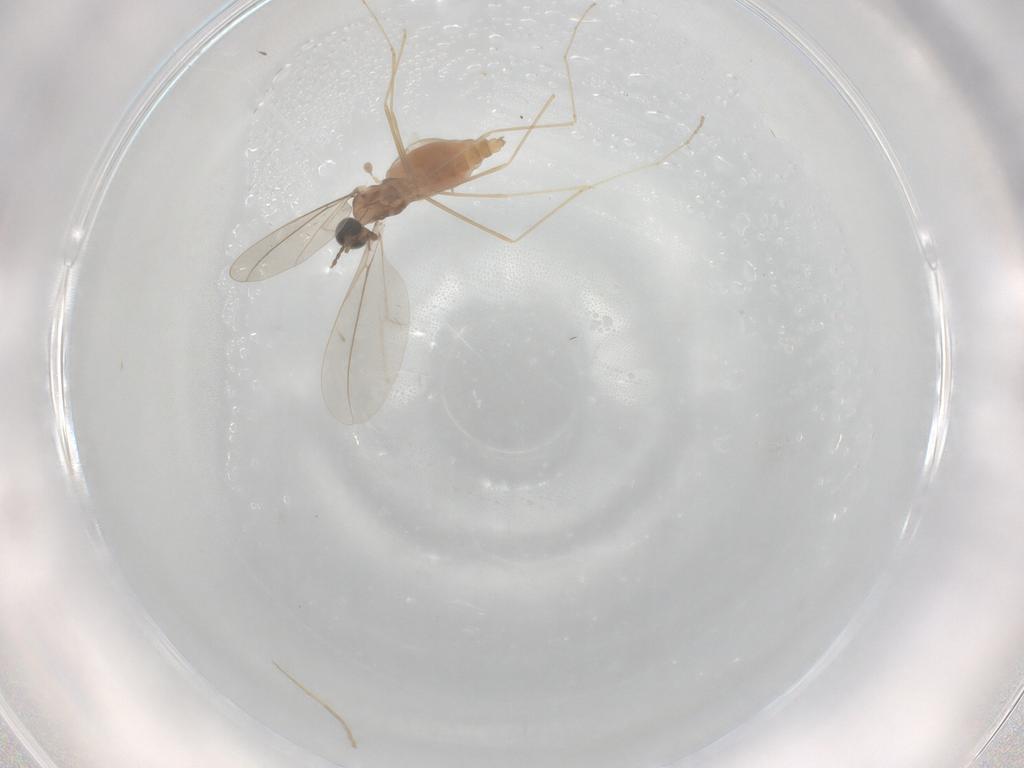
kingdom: Animalia
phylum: Arthropoda
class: Insecta
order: Diptera
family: Cecidomyiidae
